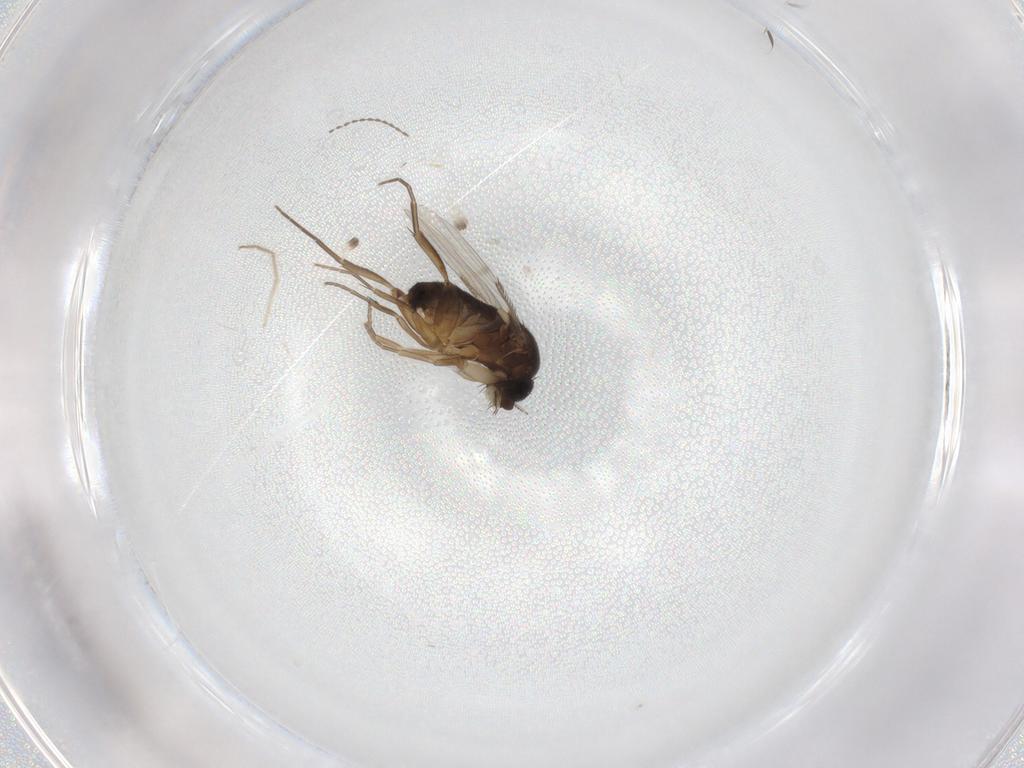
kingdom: Animalia
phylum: Arthropoda
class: Insecta
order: Diptera
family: Phoridae
